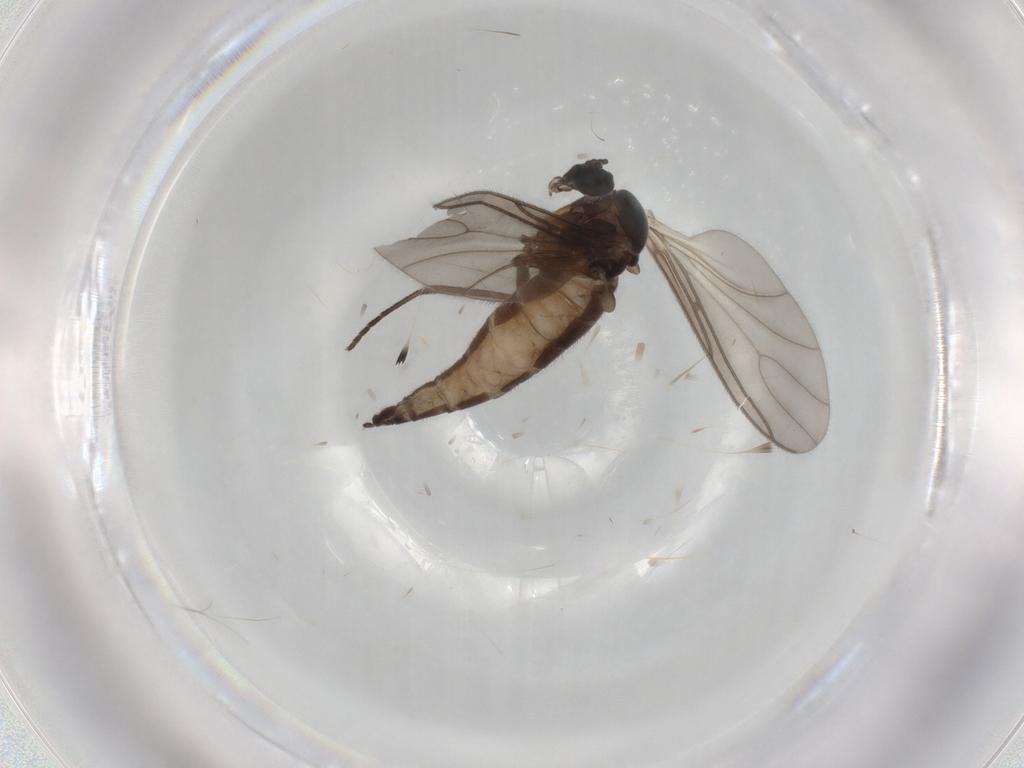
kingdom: Animalia
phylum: Arthropoda
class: Insecta
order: Diptera
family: Sciaridae
